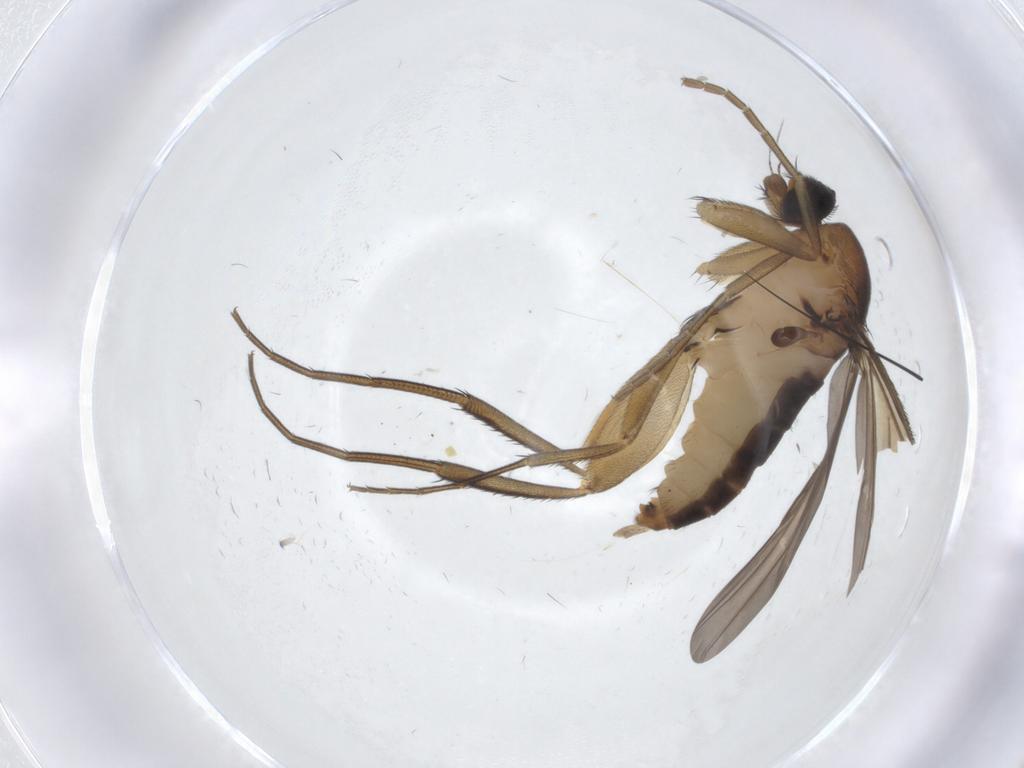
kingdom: Animalia
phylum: Arthropoda
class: Insecta
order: Diptera
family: Phoridae
